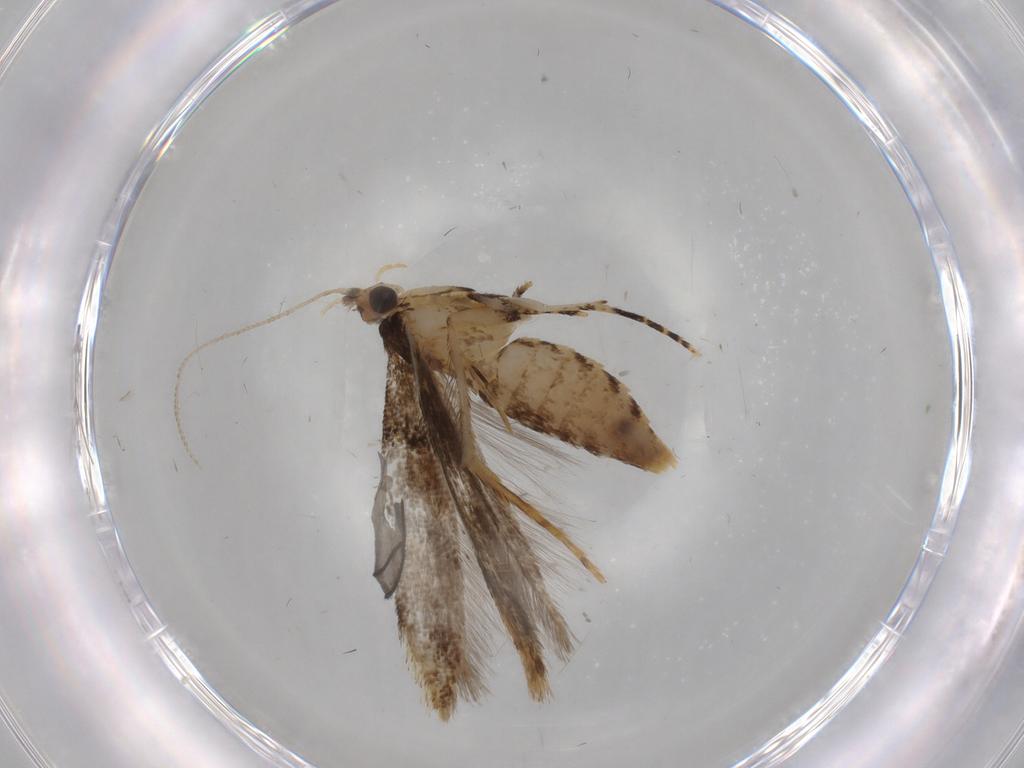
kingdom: Animalia
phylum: Arthropoda
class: Insecta
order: Lepidoptera
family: Tineidae
